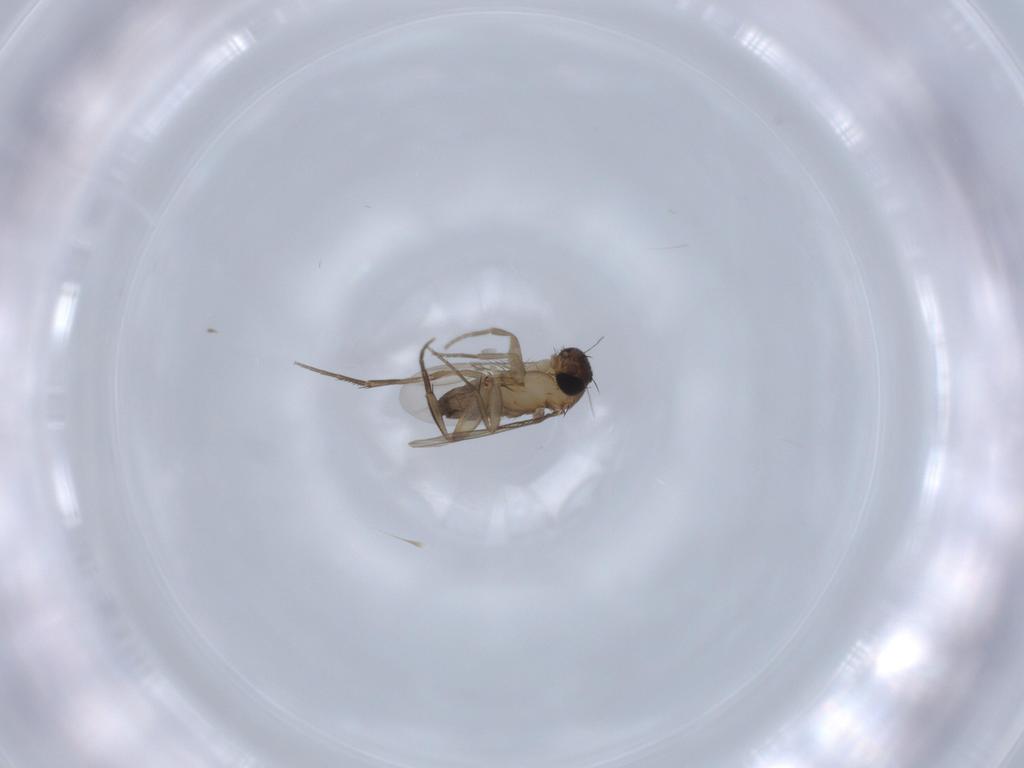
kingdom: Animalia
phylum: Arthropoda
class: Insecta
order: Diptera
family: Phoridae
